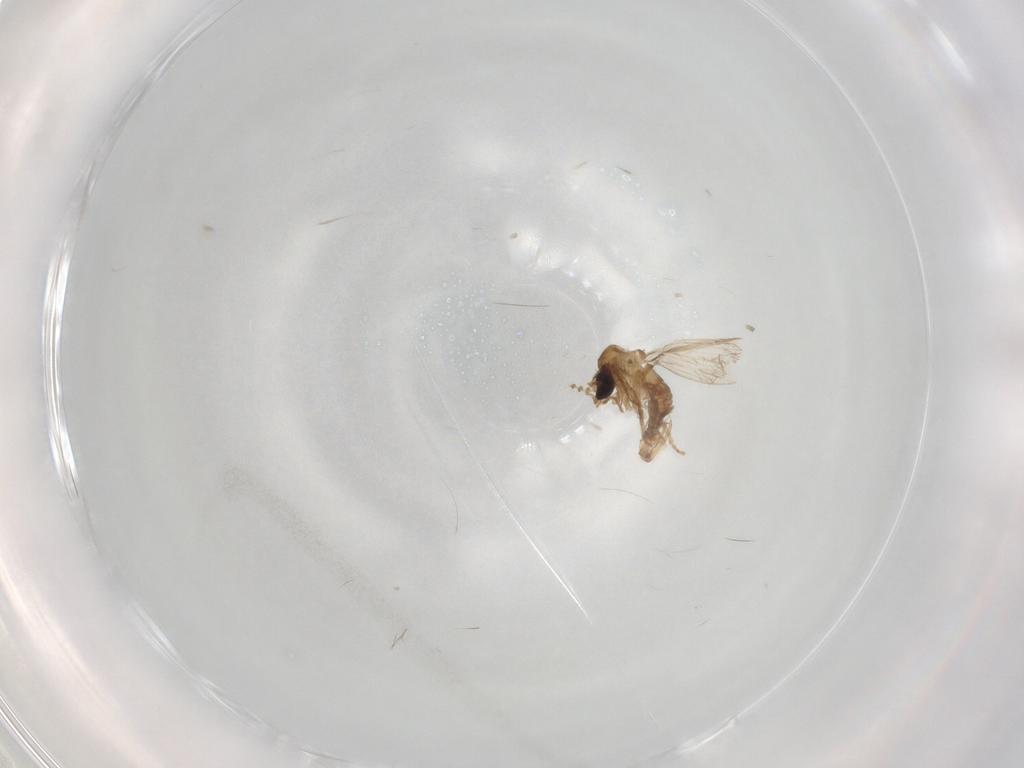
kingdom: Animalia
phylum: Arthropoda
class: Insecta
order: Diptera
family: Psychodidae
